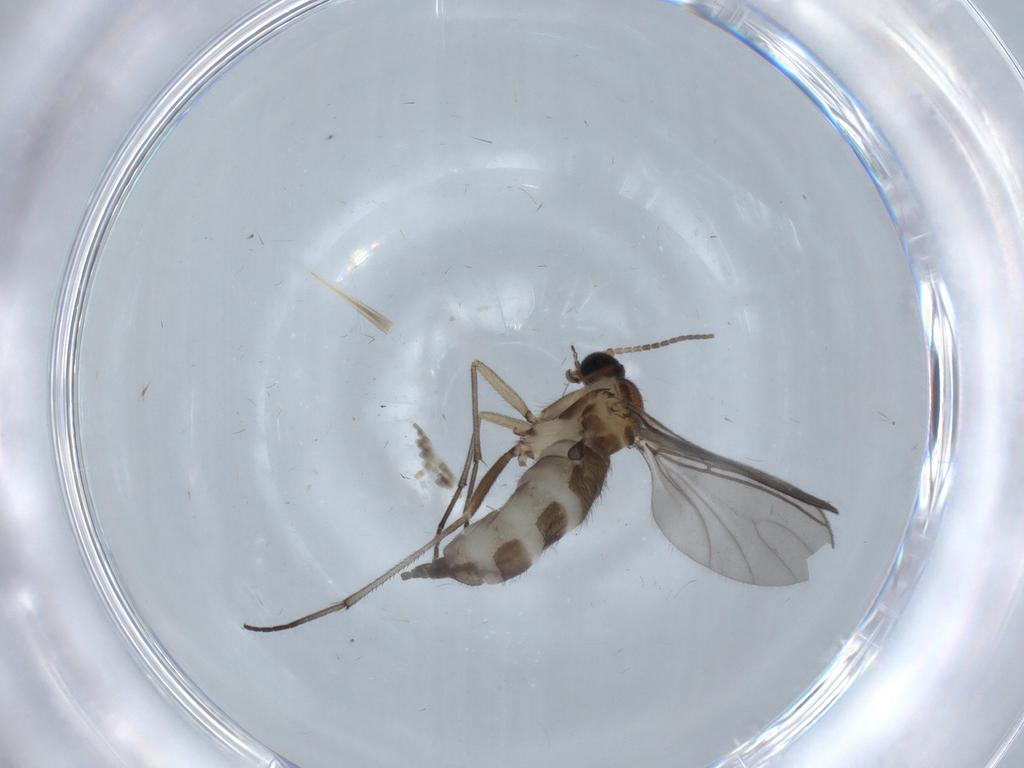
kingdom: Animalia
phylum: Arthropoda
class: Insecta
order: Diptera
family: Sciaridae
